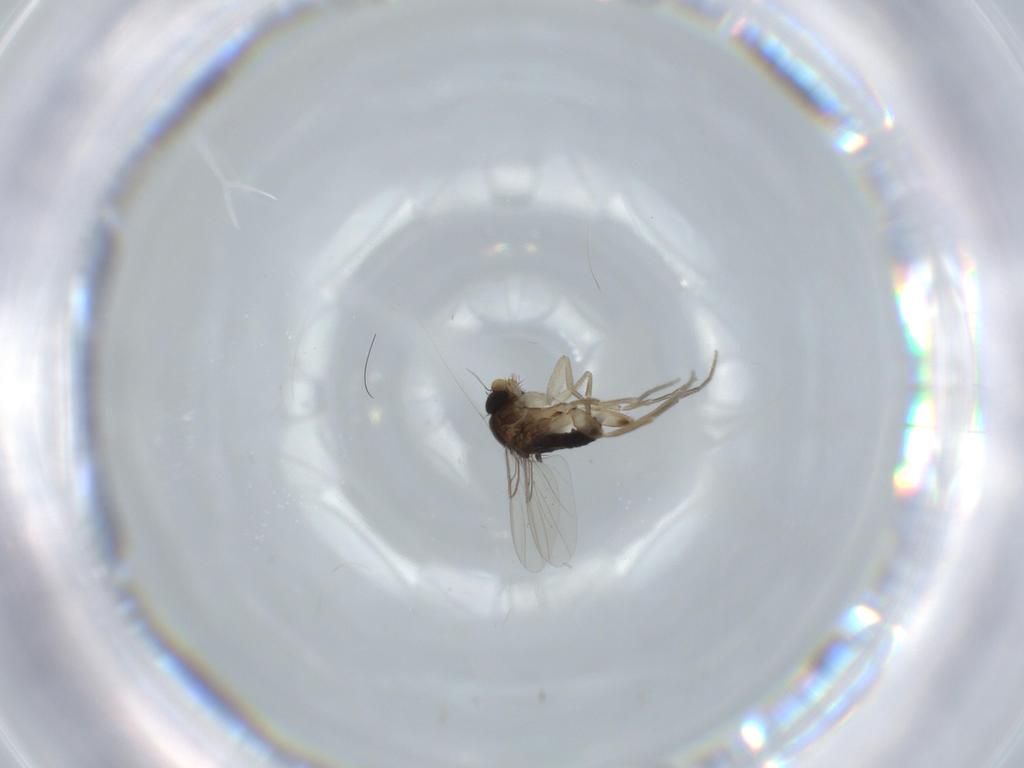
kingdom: Animalia
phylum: Arthropoda
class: Insecta
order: Diptera
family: Phoridae
